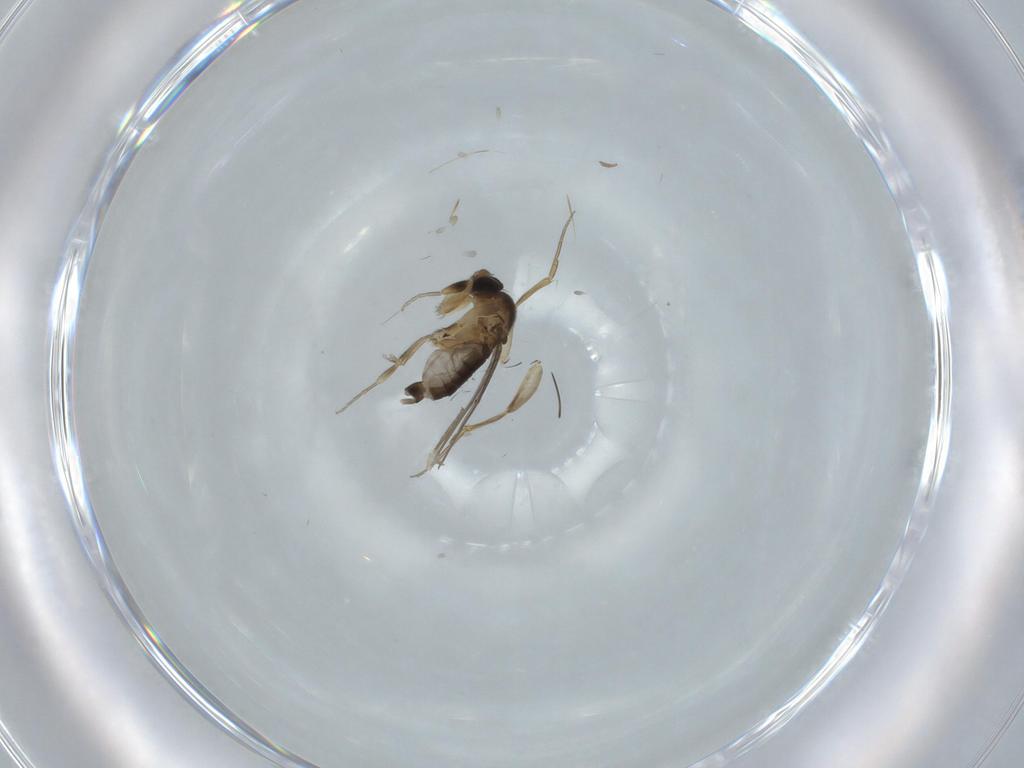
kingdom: Animalia
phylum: Arthropoda
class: Insecta
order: Diptera
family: Phoridae
